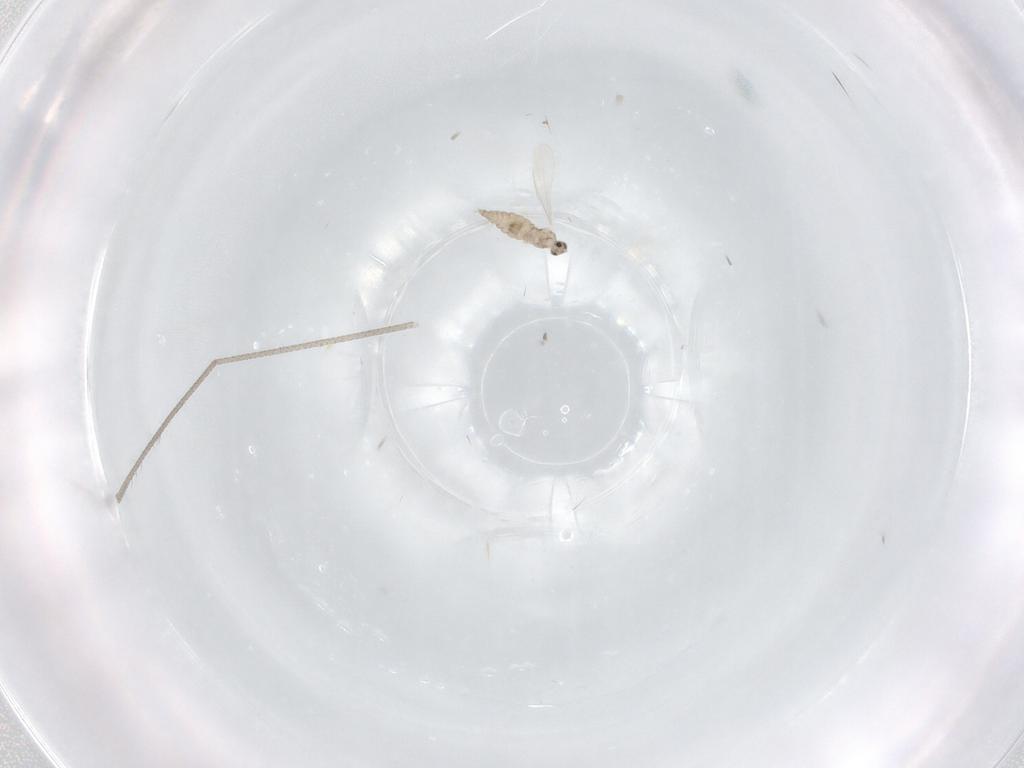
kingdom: Animalia
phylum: Arthropoda
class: Insecta
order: Diptera
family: Cecidomyiidae
